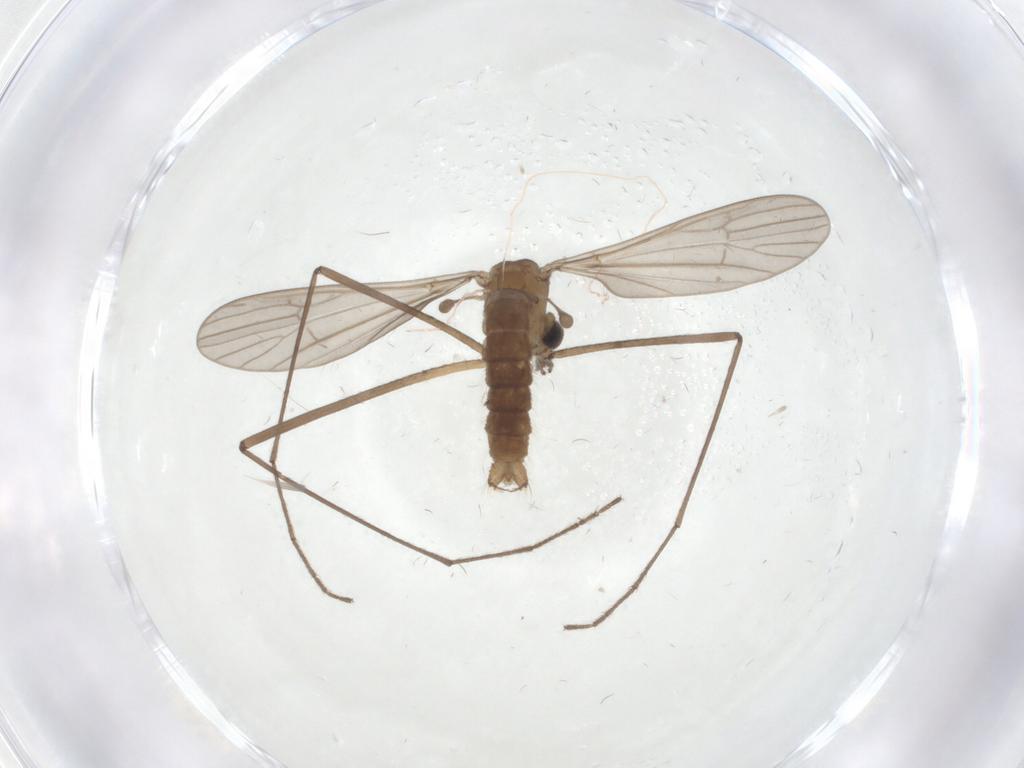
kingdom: Animalia
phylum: Arthropoda
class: Insecta
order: Diptera
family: Limoniidae
